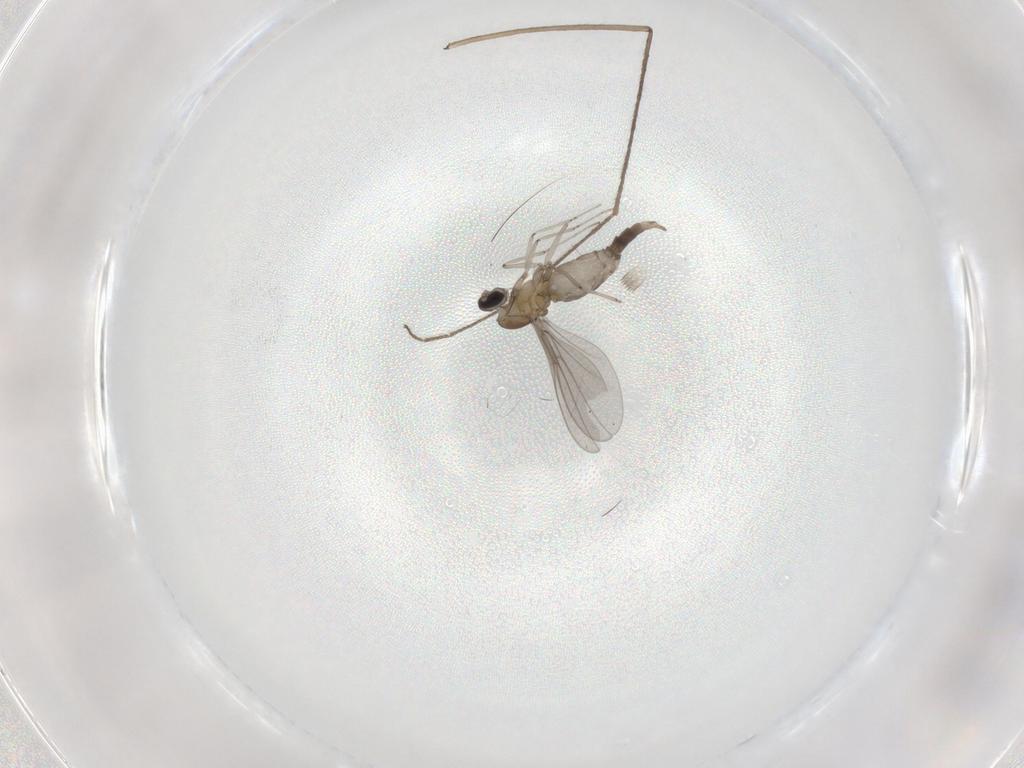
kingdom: Animalia
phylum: Arthropoda
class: Insecta
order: Diptera
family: Cecidomyiidae
